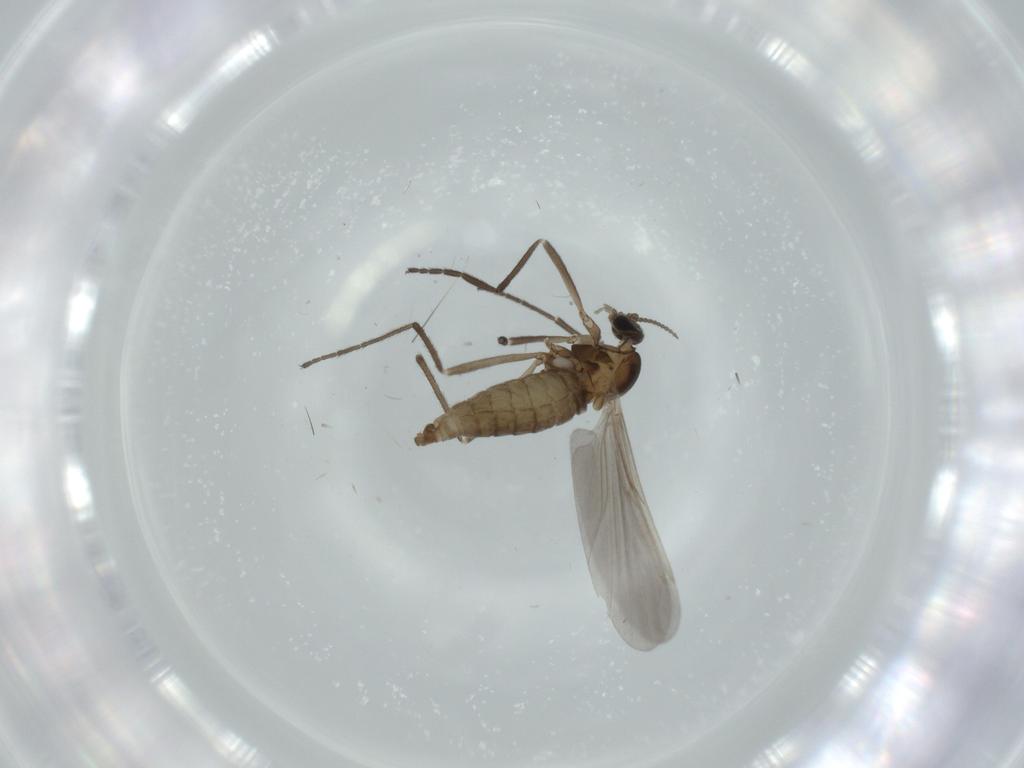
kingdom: Animalia
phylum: Arthropoda
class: Insecta
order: Diptera
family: Cecidomyiidae
